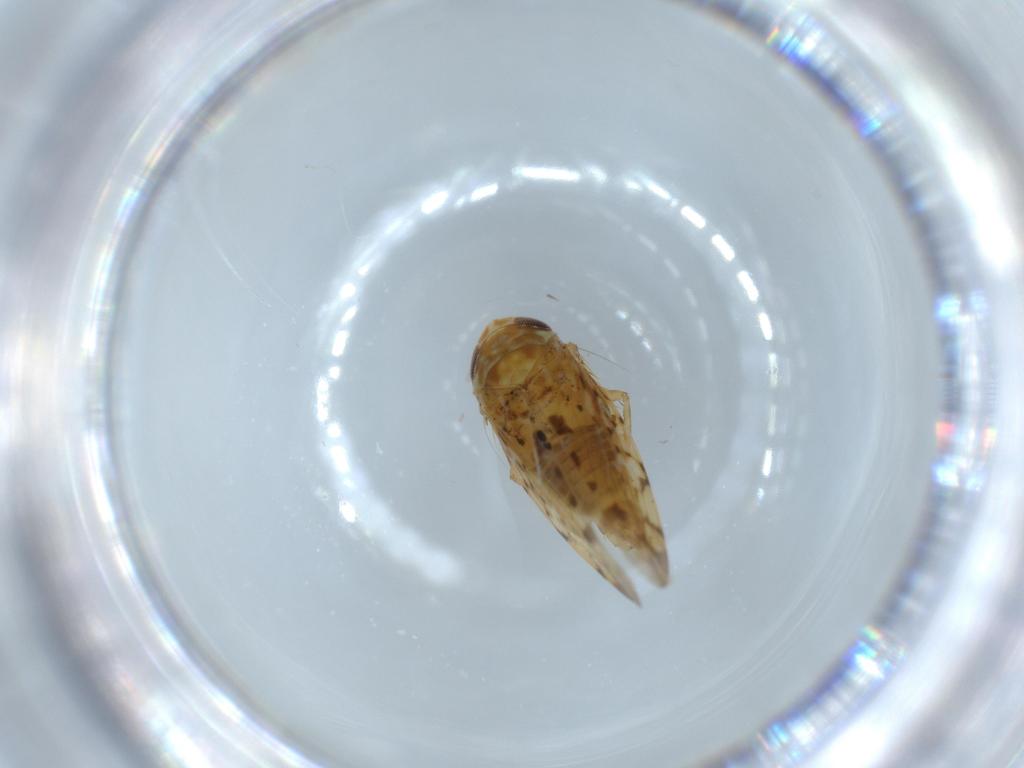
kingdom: Animalia
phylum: Arthropoda
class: Insecta
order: Hemiptera
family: Cicadellidae
